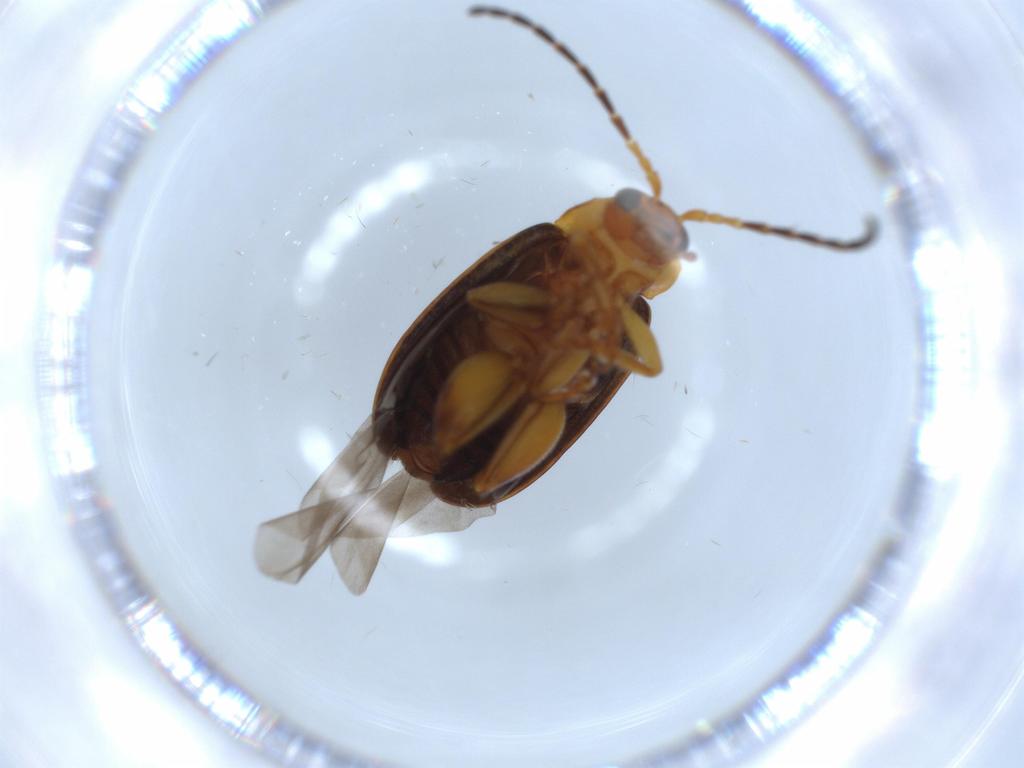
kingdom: Animalia
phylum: Arthropoda
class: Insecta
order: Coleoptera
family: Chrysomelidae
